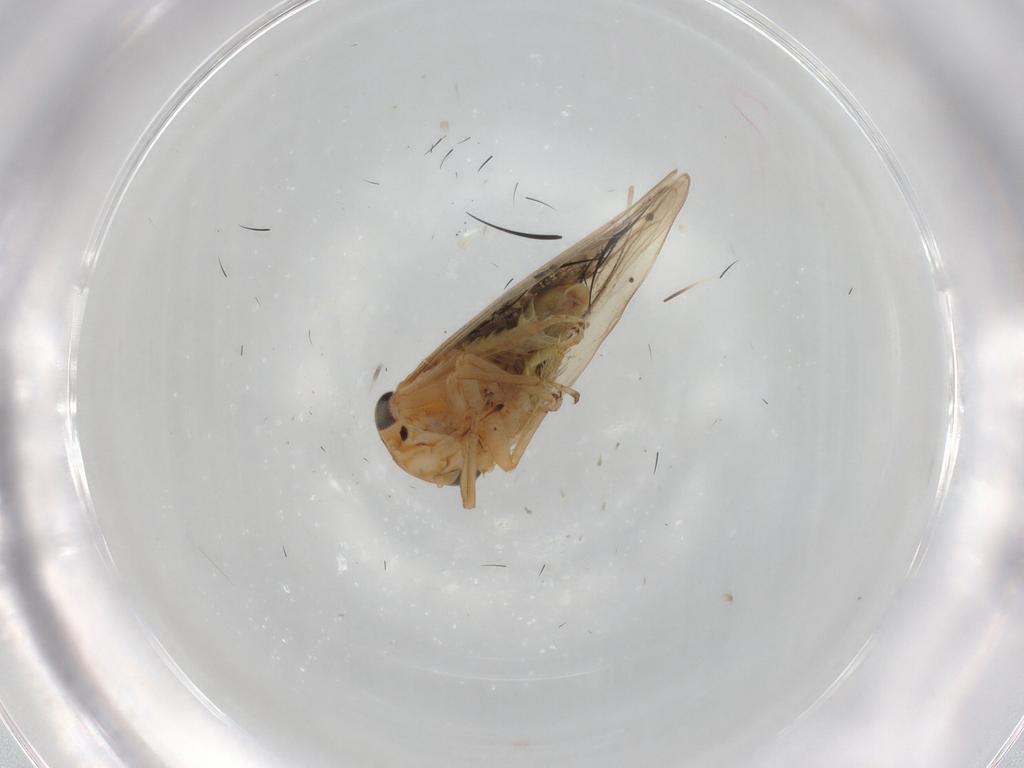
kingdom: Animalia
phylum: Arthropoda
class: Insecta
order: Hemiptera
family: Cicadellidae
